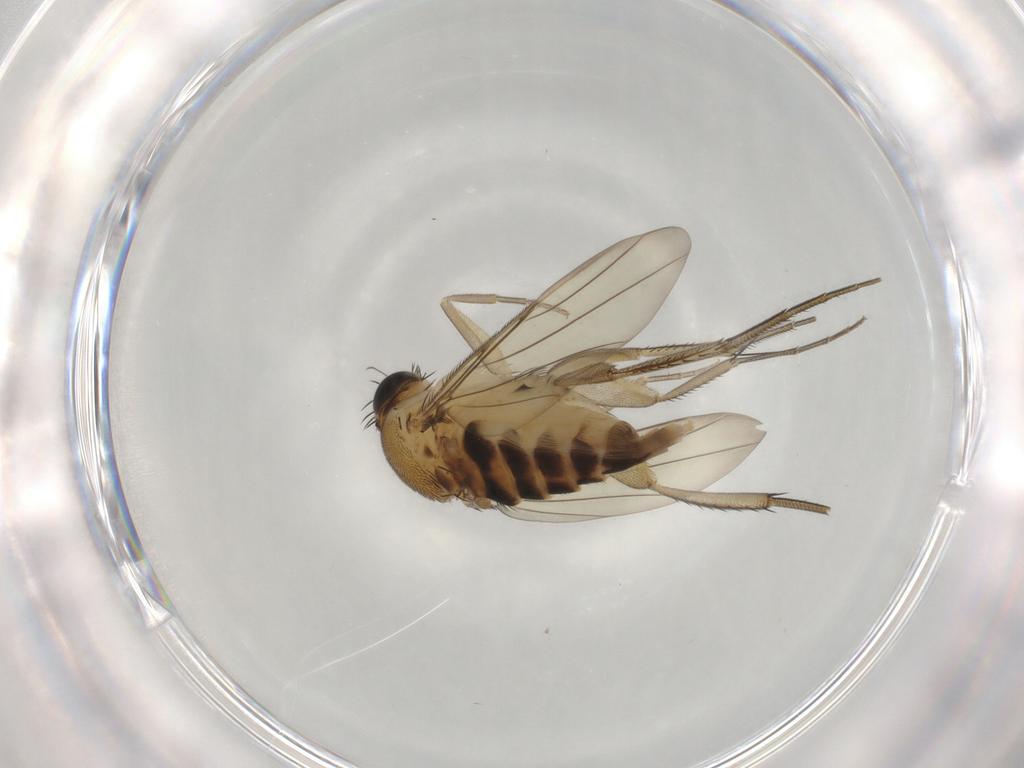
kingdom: Animalia
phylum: Arthropoda
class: Insecta
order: Diptera
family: Phoridae
